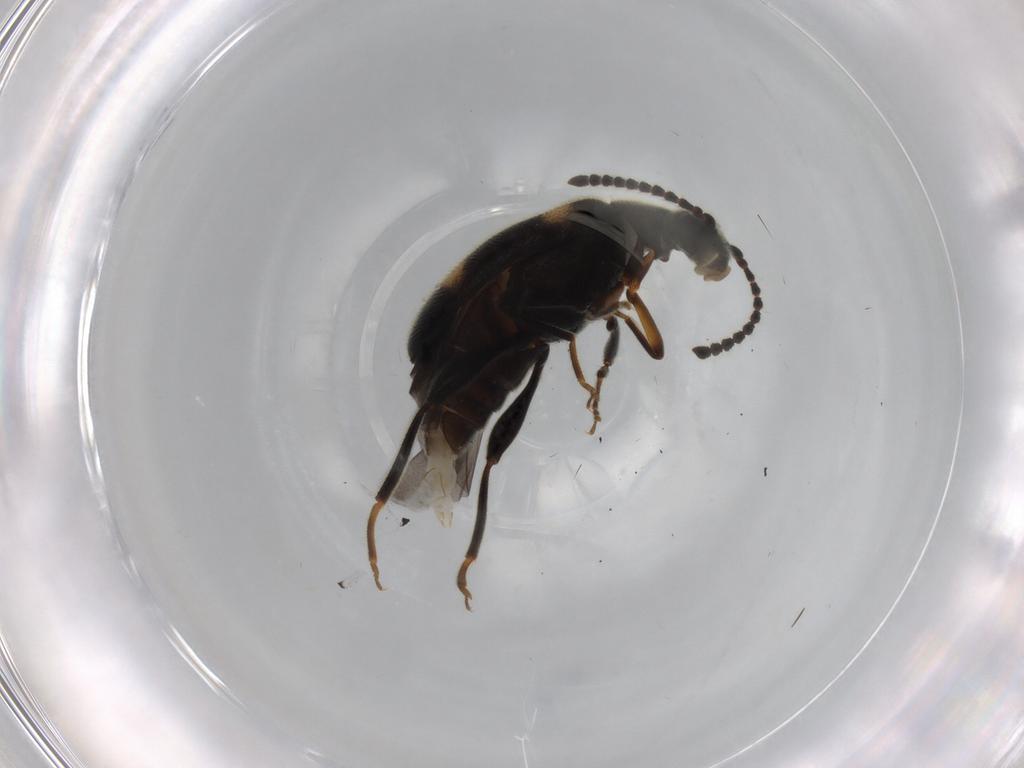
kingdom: Animalia
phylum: Arthropoda
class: Insecta
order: Coleoptera
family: Aderidae
